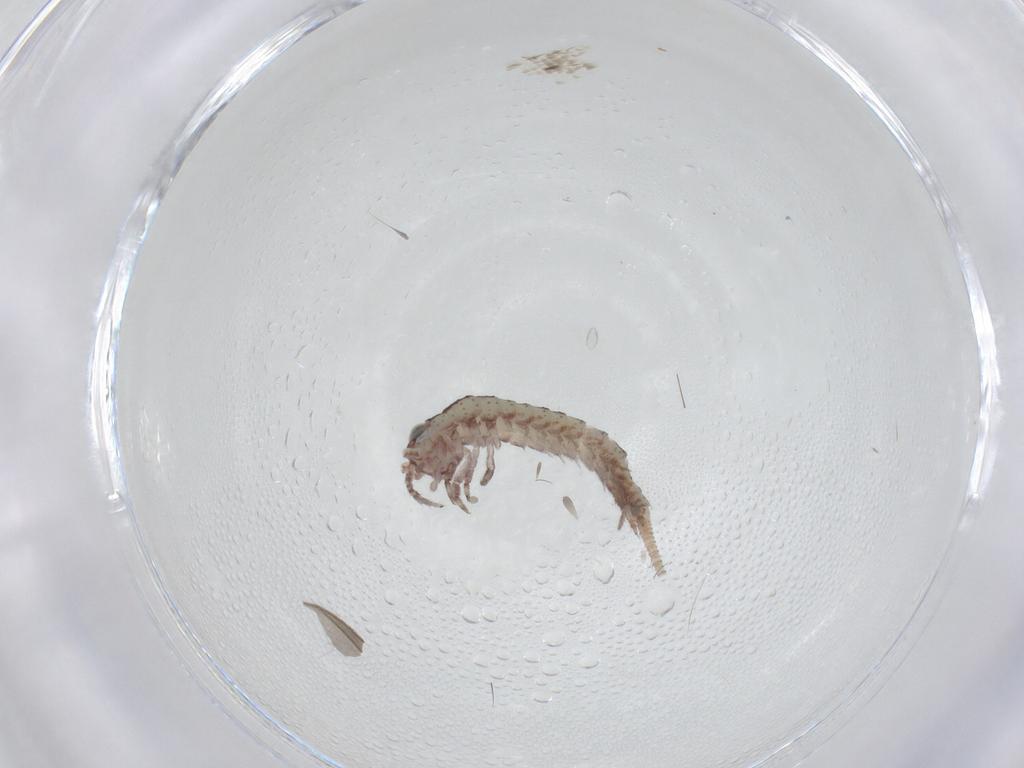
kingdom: Animalia
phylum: Arthropoda
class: Insecta
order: Archaeognatha
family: Machilidae
